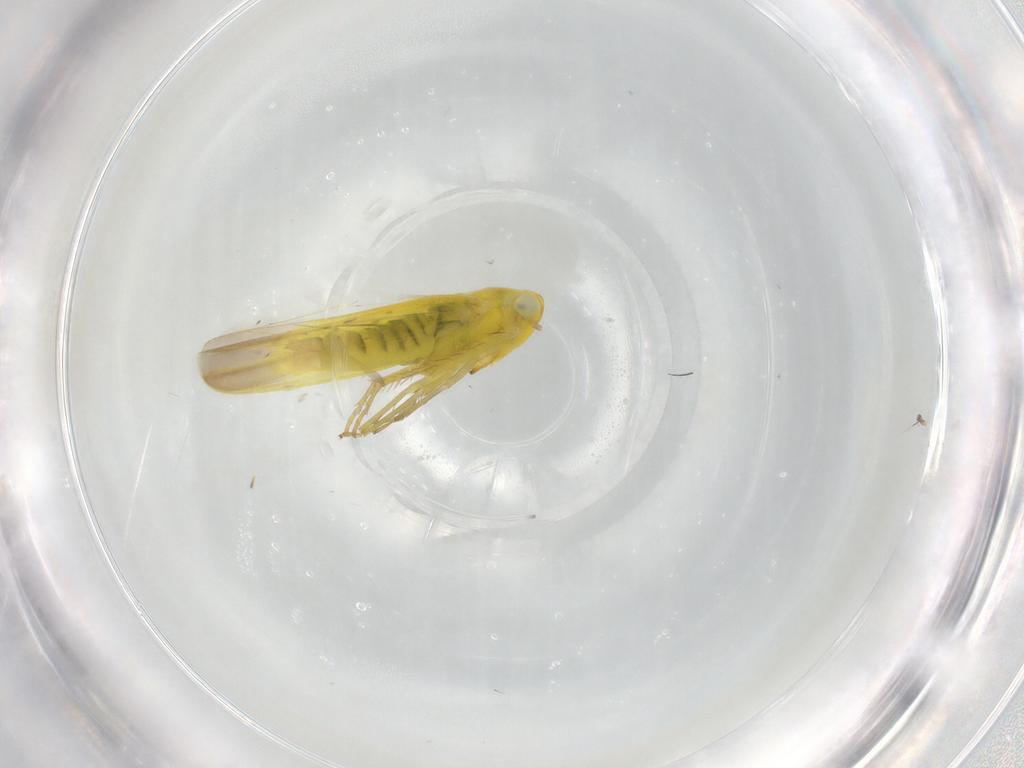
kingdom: Animalia
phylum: Arthropoda
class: Insecta
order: Hemiptera
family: Cicadellidae
